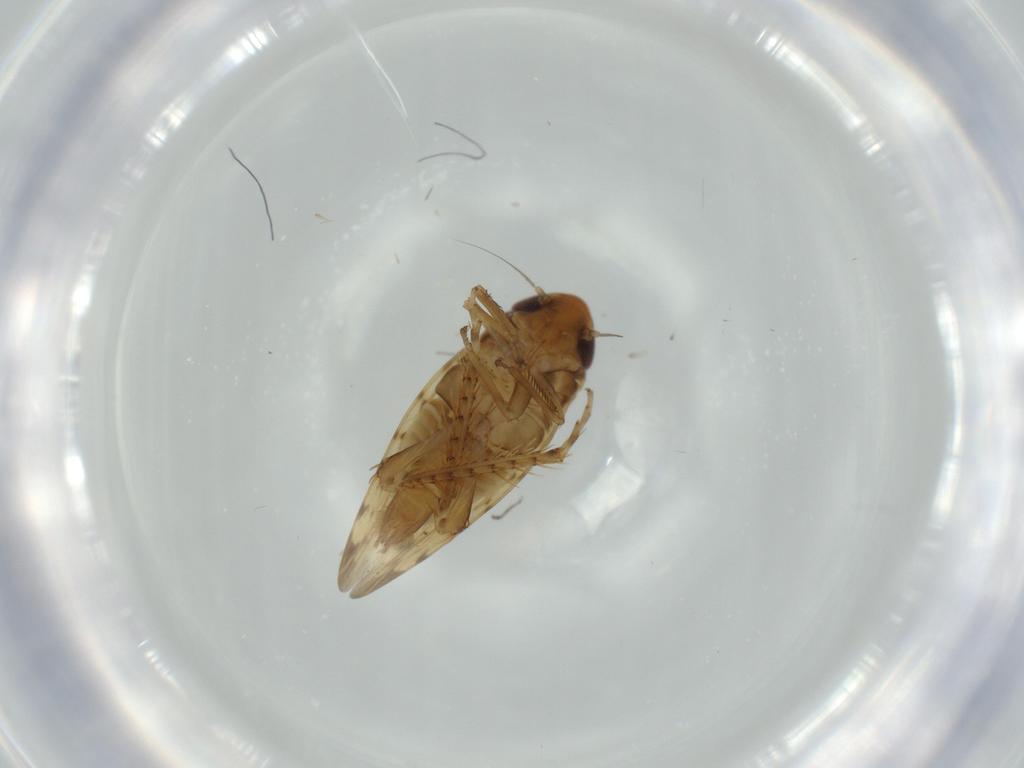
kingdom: Animalia
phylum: Arthropoda
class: Insecta
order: Hemiptera
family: Cicadellidae
